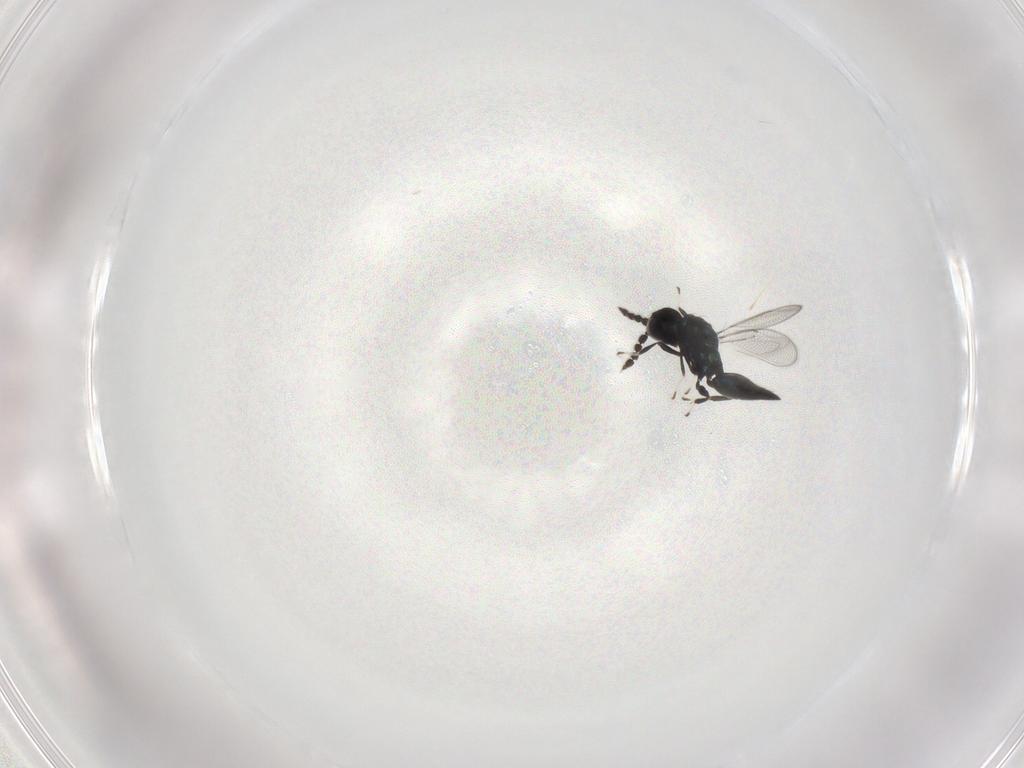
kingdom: Animalia
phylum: Arthropoda
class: Insecta
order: Hymenoptera
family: Eulophidae
